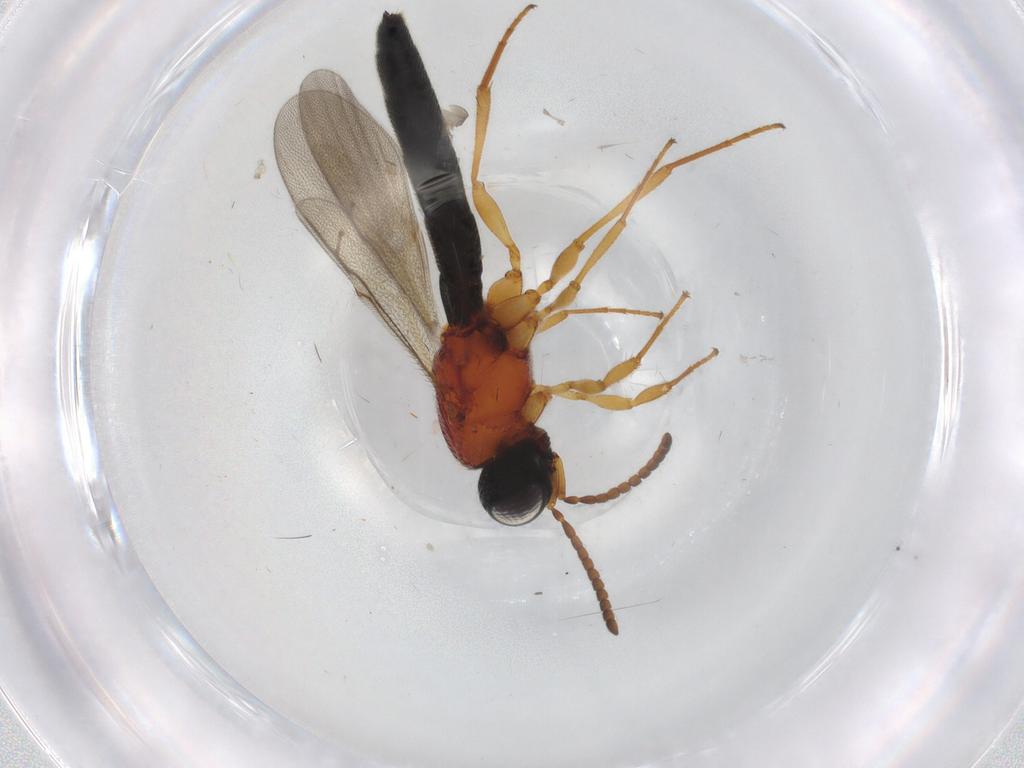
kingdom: Animalia
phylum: Arthropoda
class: Insecta
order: Hymenoptera
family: Scelionidae
